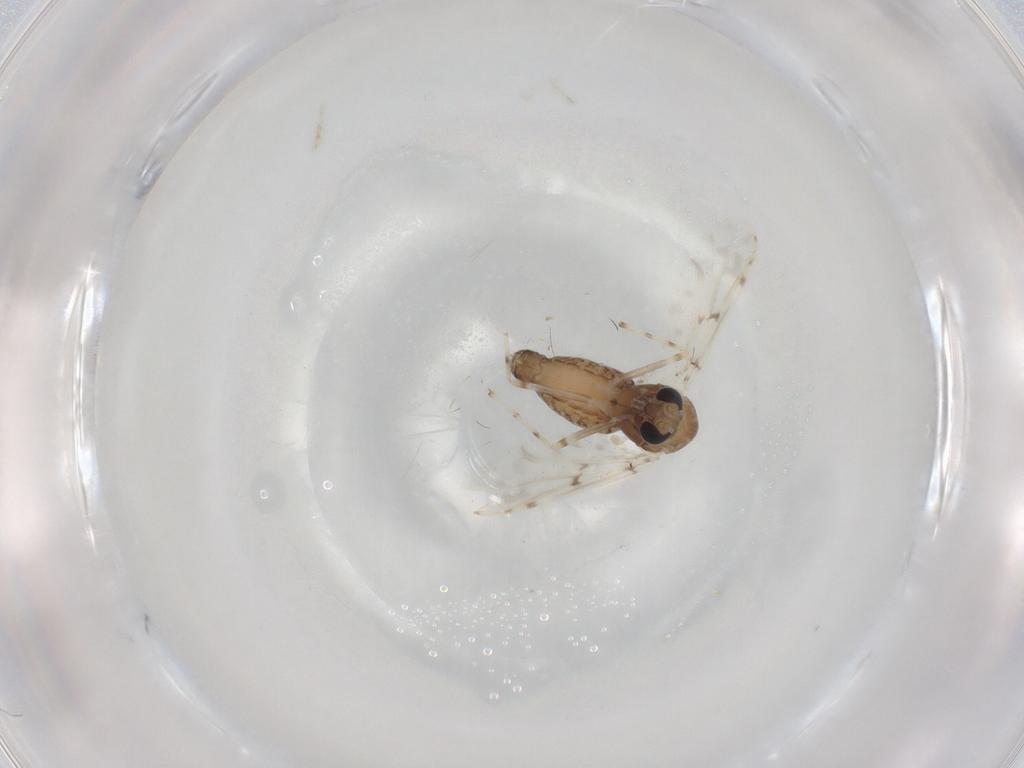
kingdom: Animalia
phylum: Arthropoda
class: Insecta
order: Diptera
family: Chironomidae
